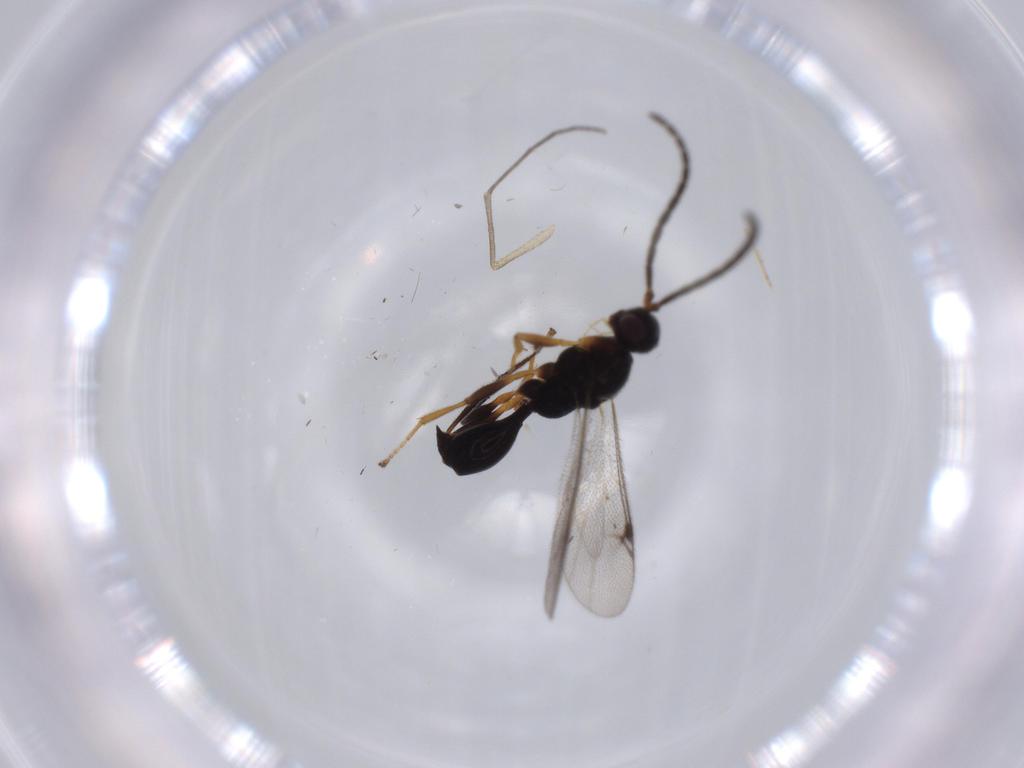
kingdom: Animalia
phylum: Arthropoda
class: Insecta
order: Hymenoptera
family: Proctotrupidae
